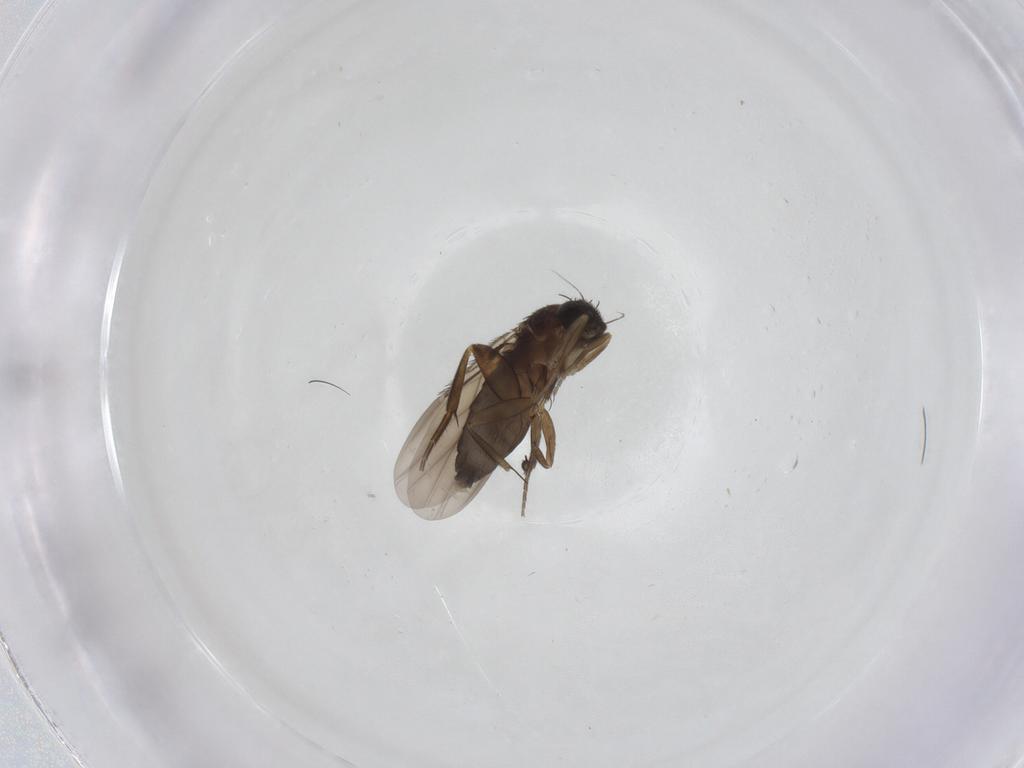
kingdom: Animalia
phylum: Arthropoda
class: Insecta
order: Diptera
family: Phoridae
